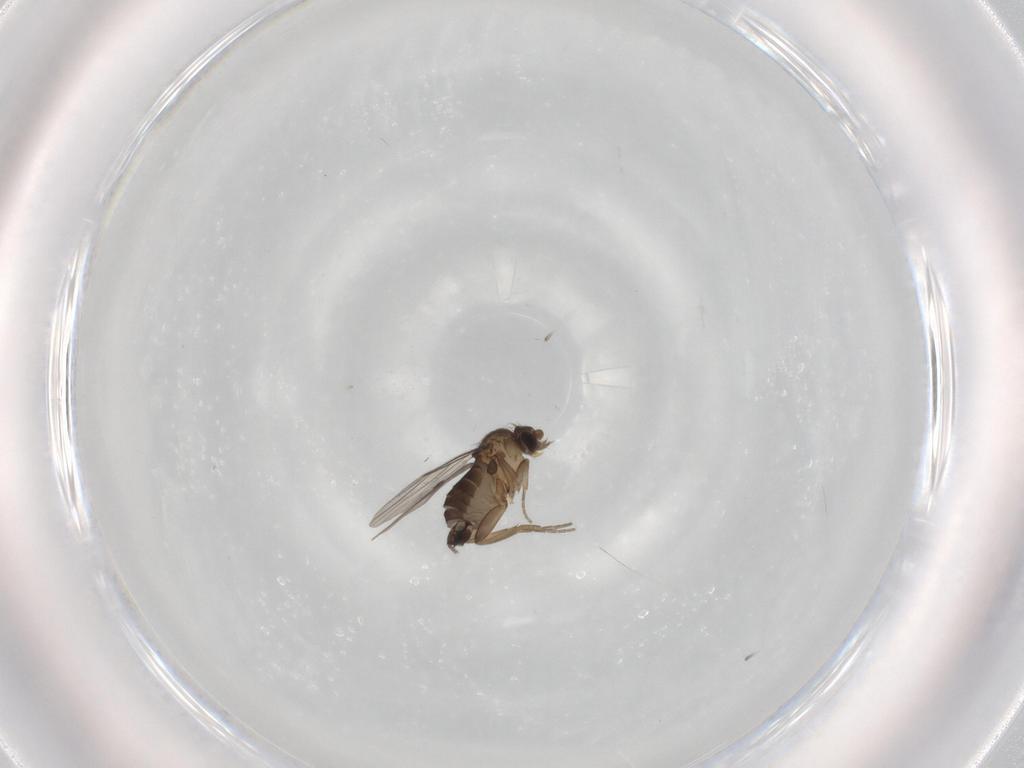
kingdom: Animalia
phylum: Arthropoda
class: Insecta
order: Diptera
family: Phoridae
